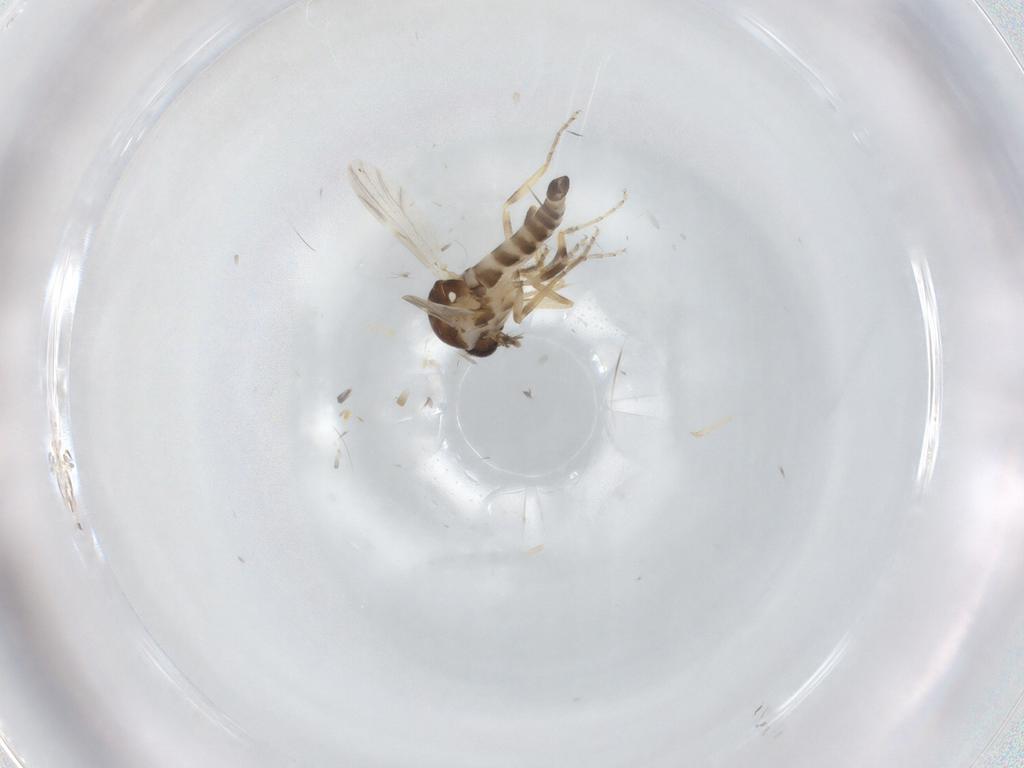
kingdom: Animalia
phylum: Arthropoda
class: Insecta
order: Diptera
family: Ceratopogonidae
